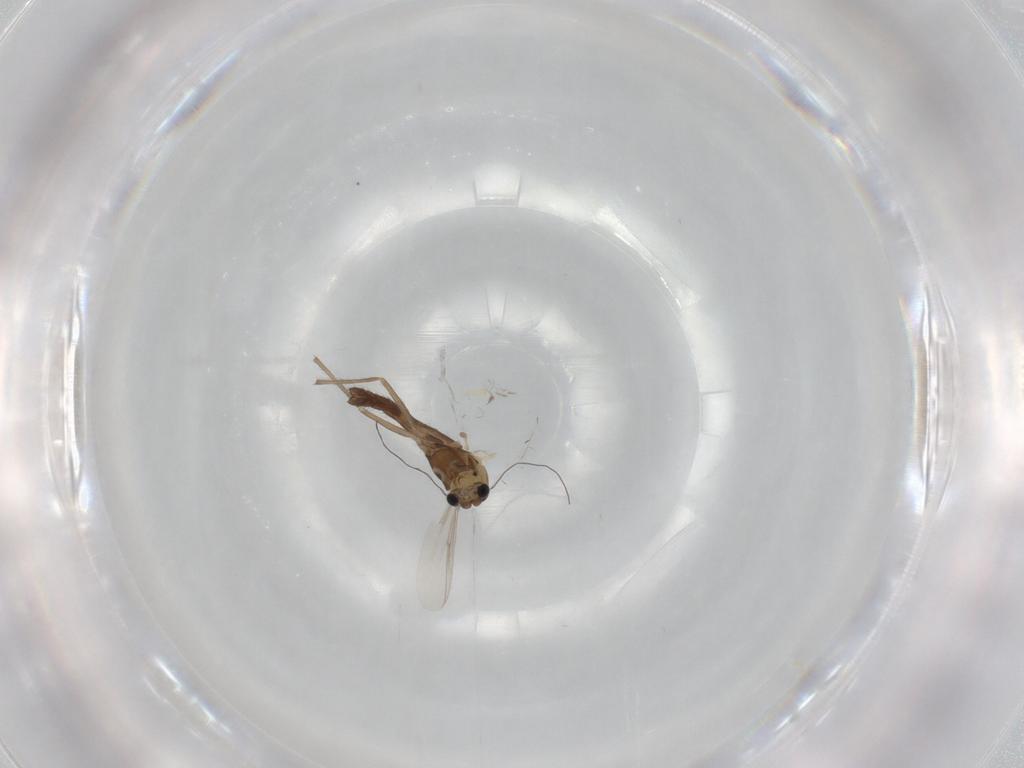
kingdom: Animalia
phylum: Arthropoda
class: Insecta
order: Diptera
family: Chironomidae
